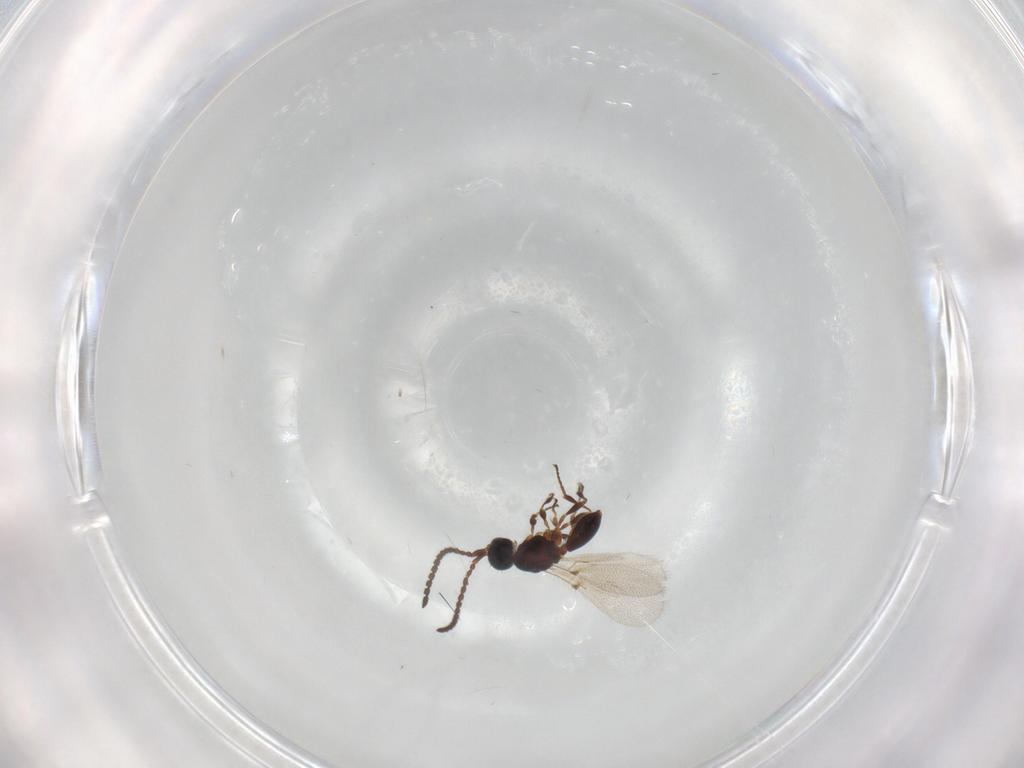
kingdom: Animalia
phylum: Arthropoda
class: Insecta
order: Hymenoptera
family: Diapriidae
